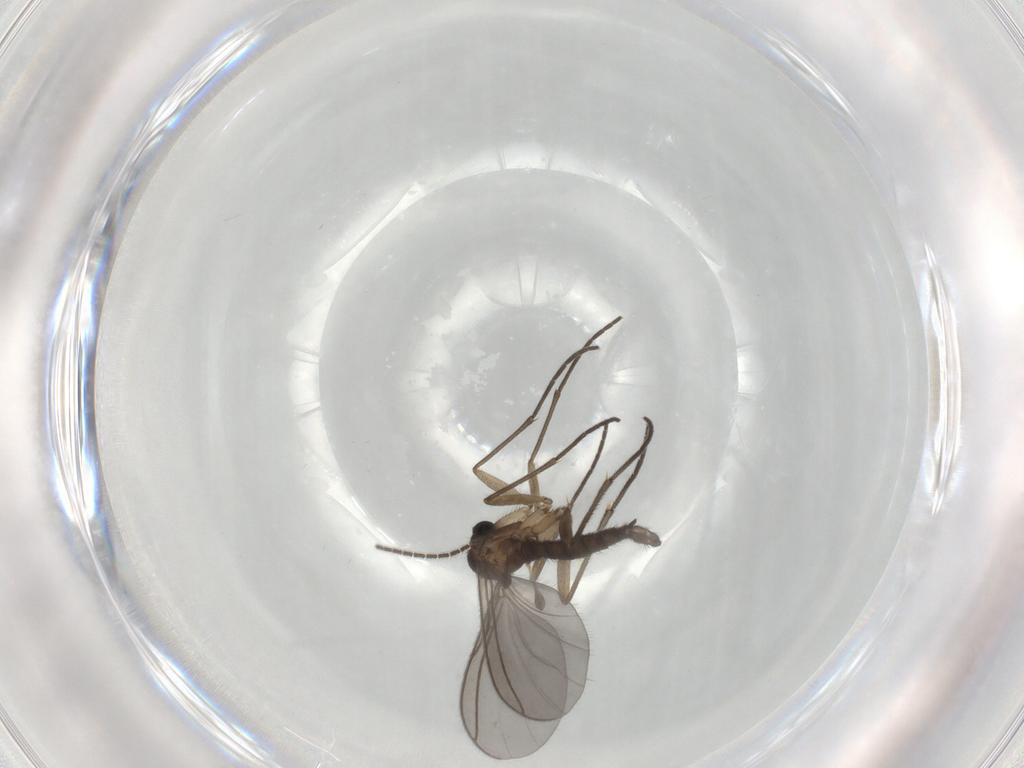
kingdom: Animalia
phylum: Arthropoda
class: Insecta
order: Diptera
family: Sciaridae
